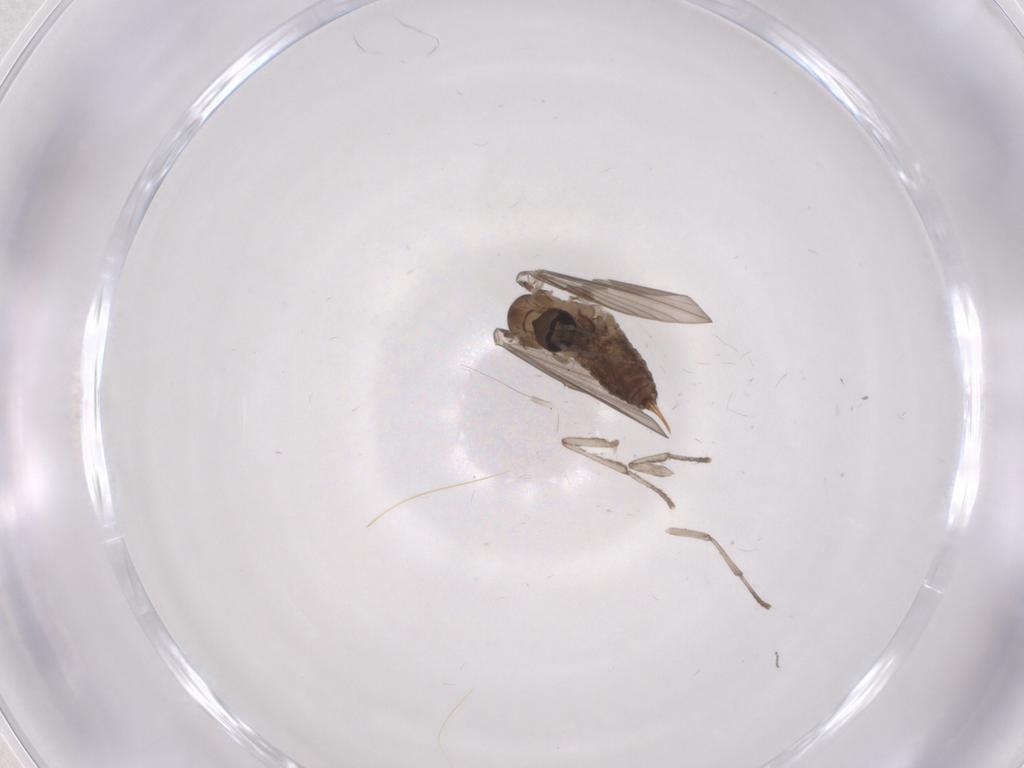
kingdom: Animalia
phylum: Arthropoda
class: Insecta
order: Diptera
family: Psychodidae
